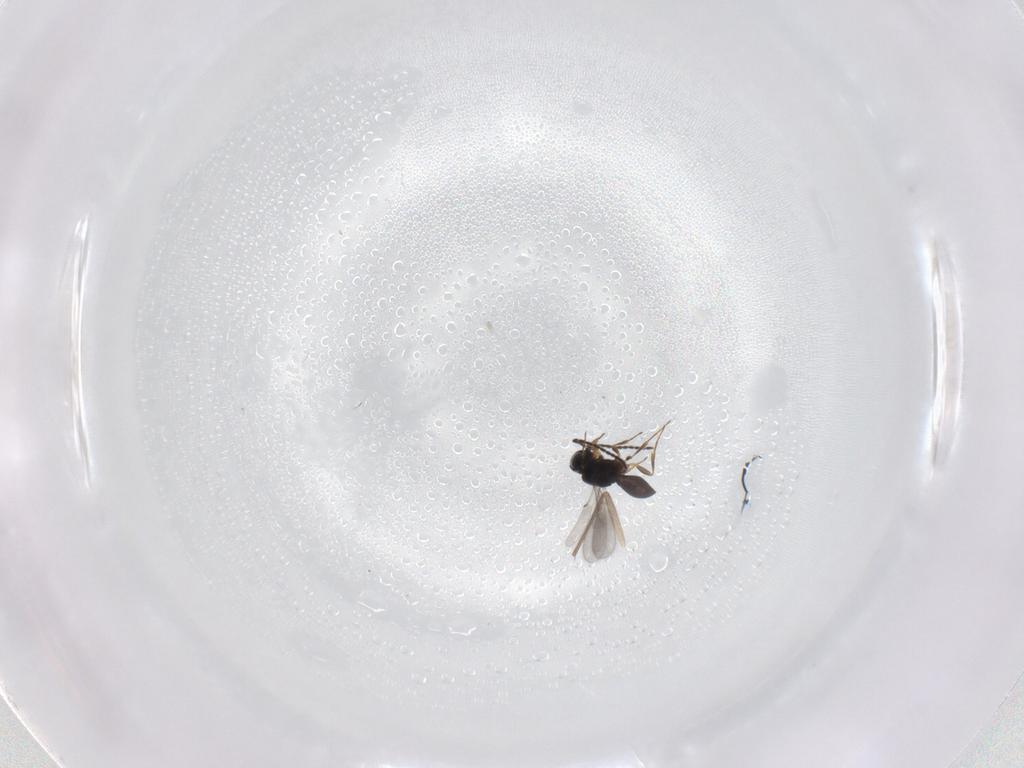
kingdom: Animalia
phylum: Arthropoda
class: Insecta
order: Hymenoptera
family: Scelionidae
